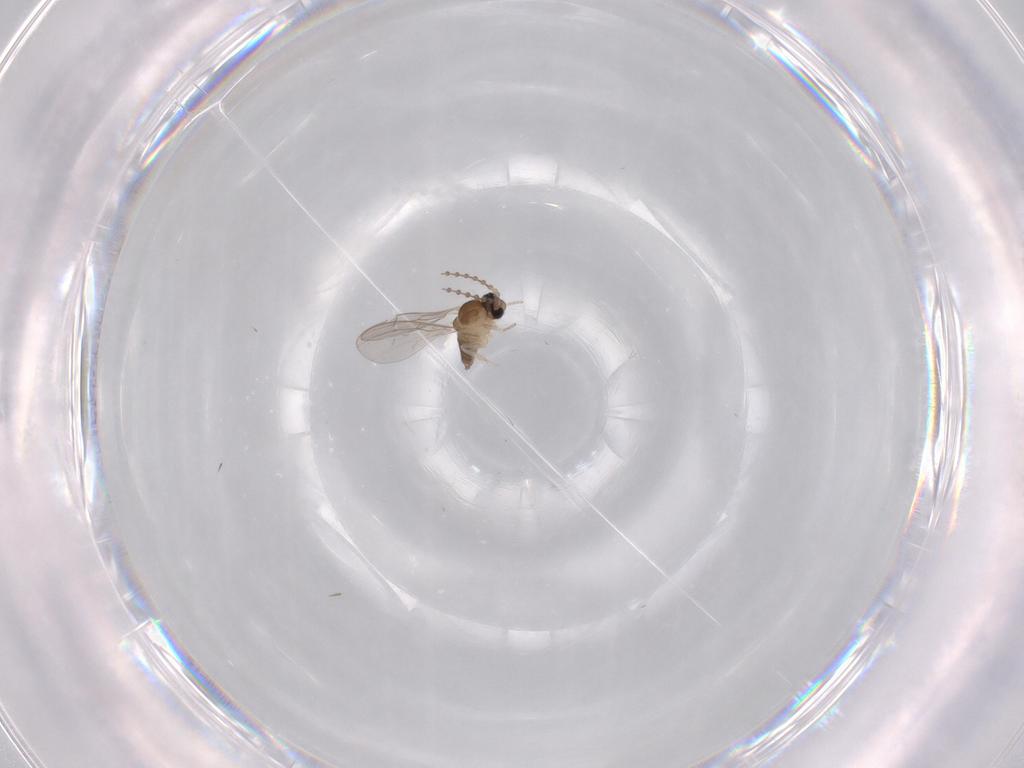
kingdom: Animalia
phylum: Arthropoda
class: Insecta
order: Diptera
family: Cecidomyiidae
